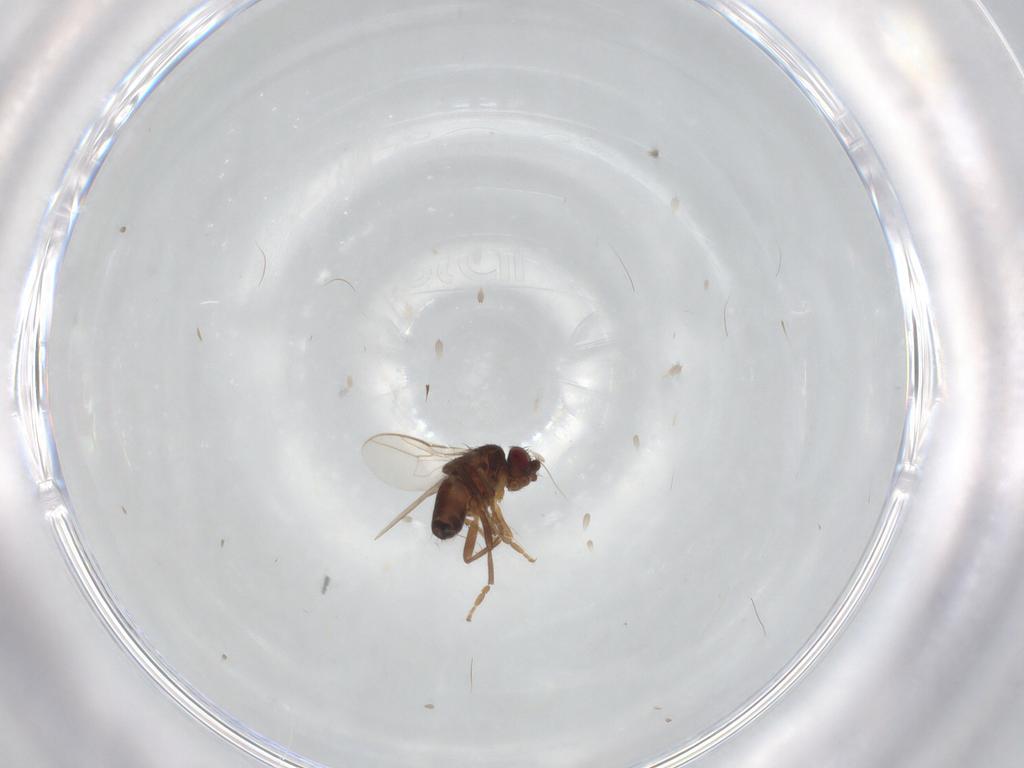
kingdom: Animalia
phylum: Arthropoda
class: Insecta
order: Diptera
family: Sphaeroceridae
